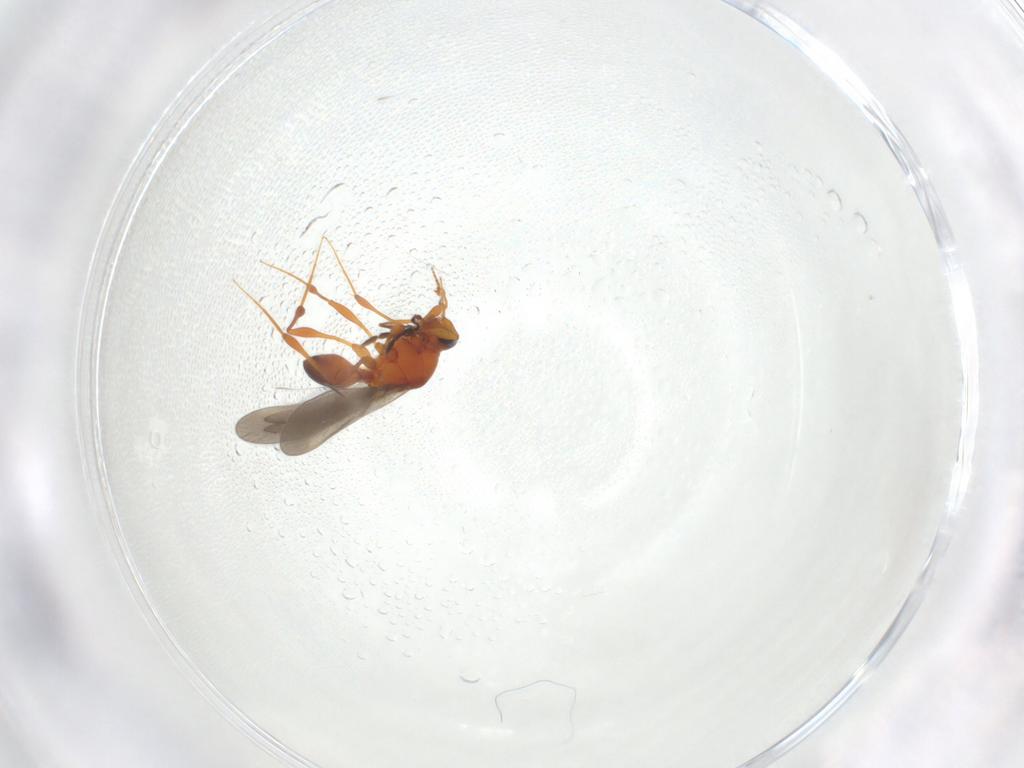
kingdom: Animalia
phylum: Arthropoda
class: Insecta
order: Hymenoptera
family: Platygastridae
